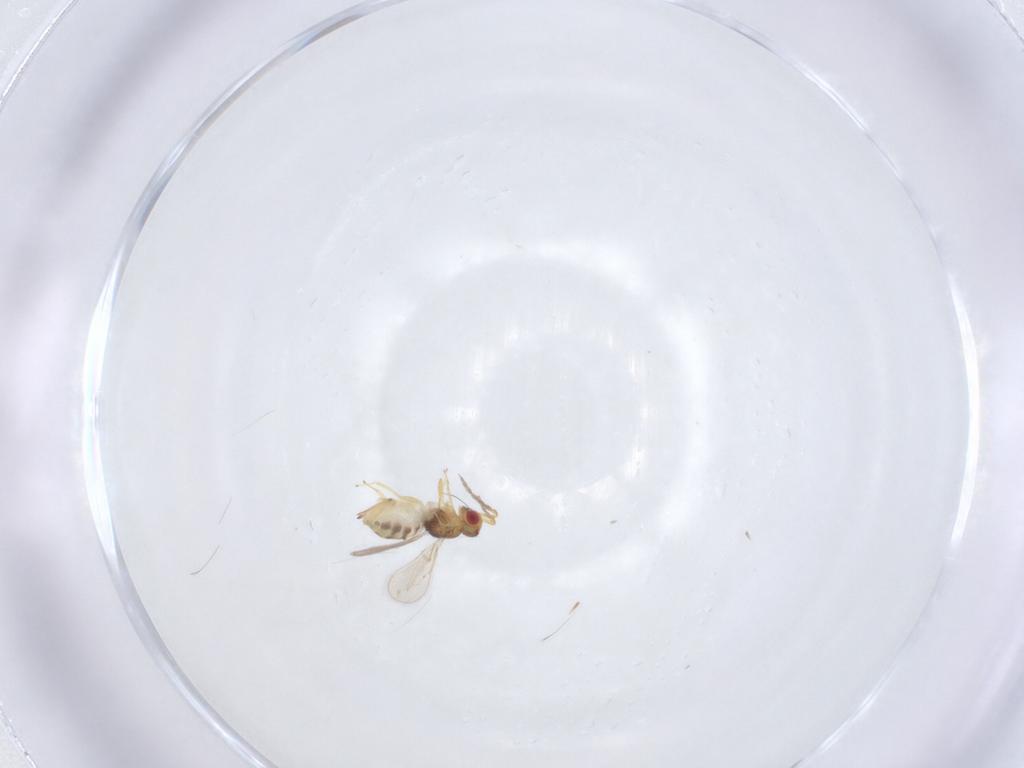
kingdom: Animalia
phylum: Arthropoda
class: Insecta
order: Hymenoptera
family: Eulophidae
